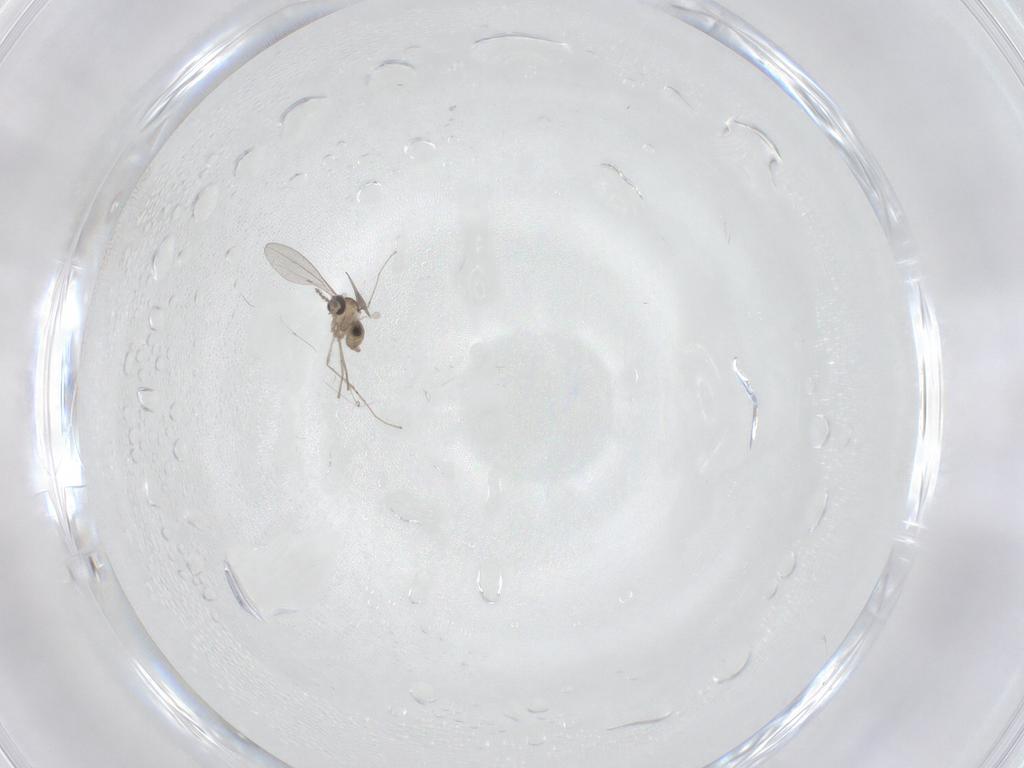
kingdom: Animalia
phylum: Arthropoda
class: Insecta
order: Diptera
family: Cecidomyiidae
